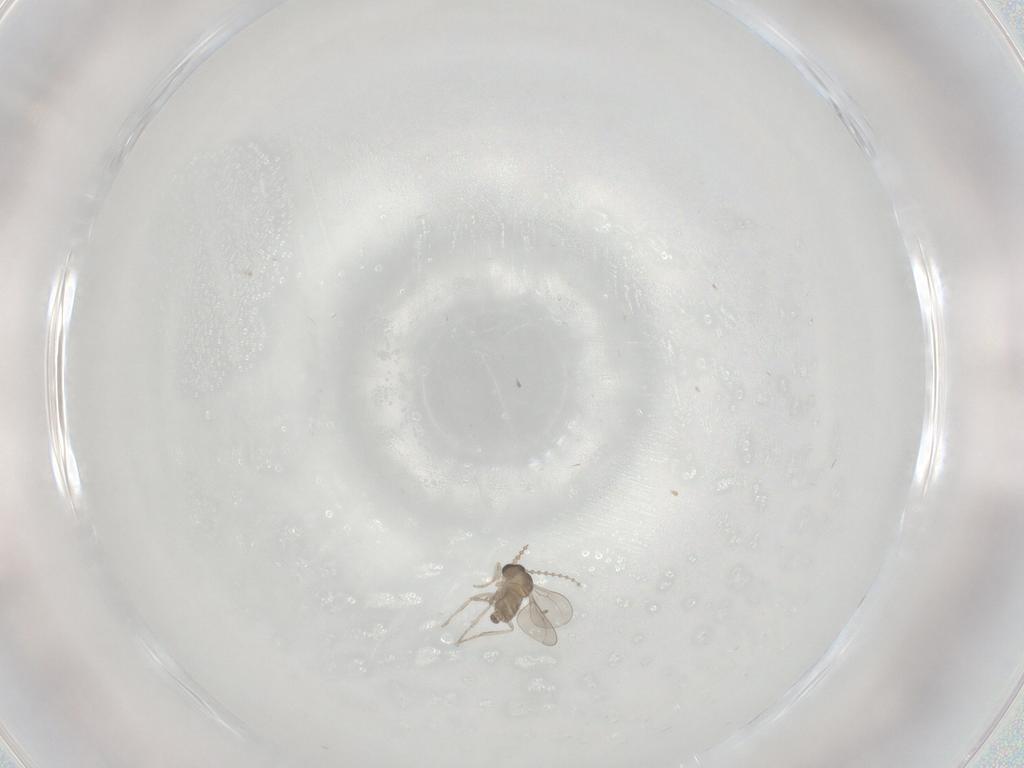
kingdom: Animalia
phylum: Arthropoda
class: Insecta
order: Diptera
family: Cecidomyiidae
